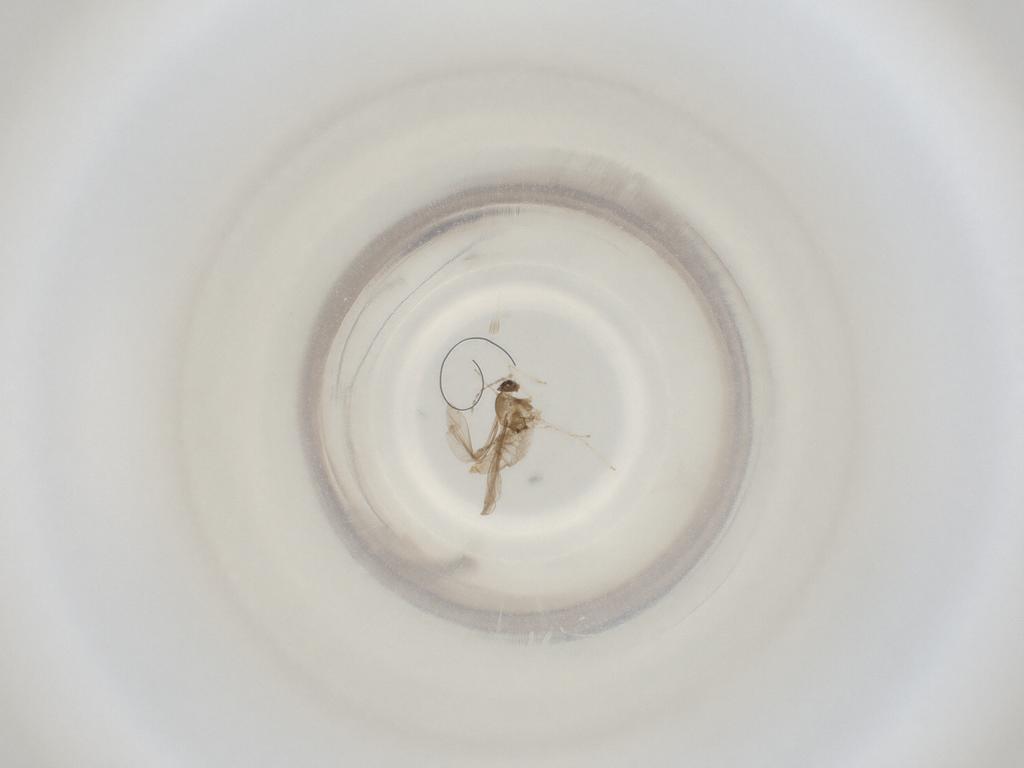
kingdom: Animalia
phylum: Arthropoda
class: Insecta
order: Diptera
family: Cecidomyiidae
